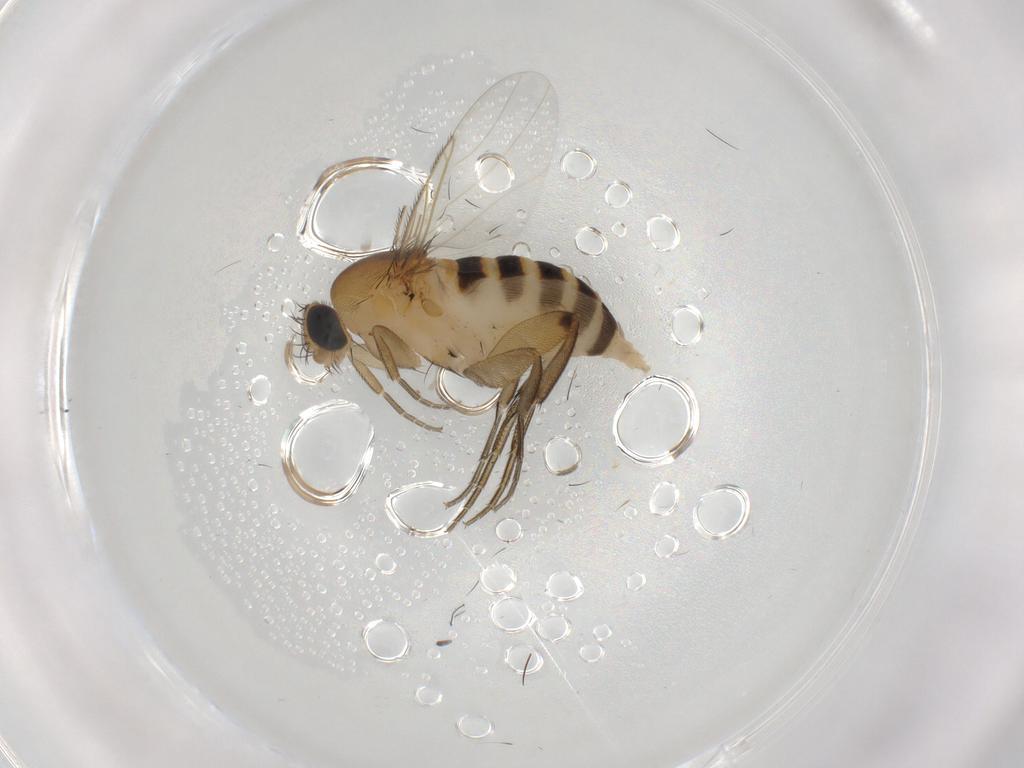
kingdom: Animalia
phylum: Arthropoda
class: Insecta
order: Diptera
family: Phoridae
